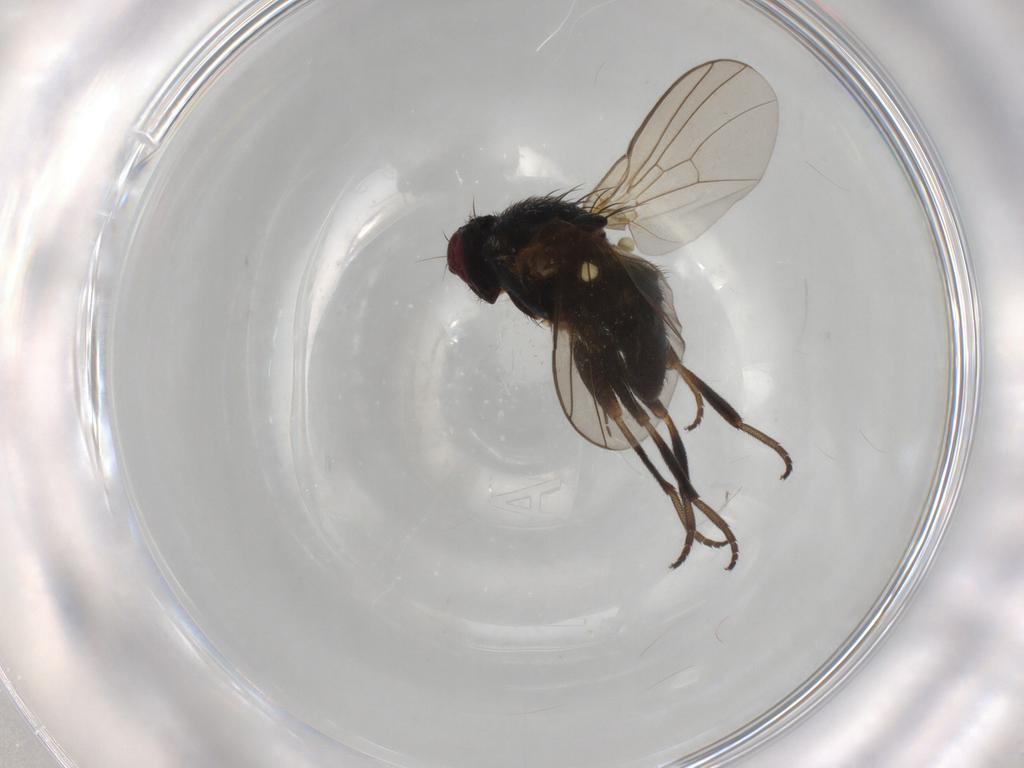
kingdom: Animalia
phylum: Arthropoda
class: Insecta
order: Diptera
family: Agromyzidae
